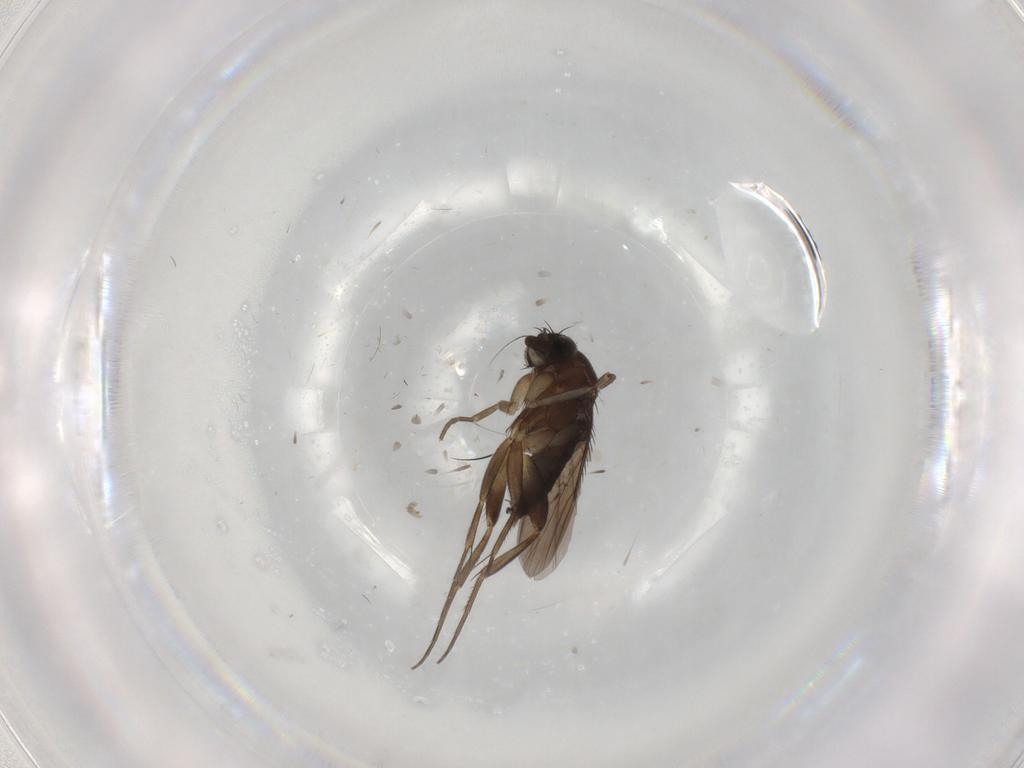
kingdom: Animalia
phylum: Arthropoda
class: Insecta
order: Diptera
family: Phoridae
